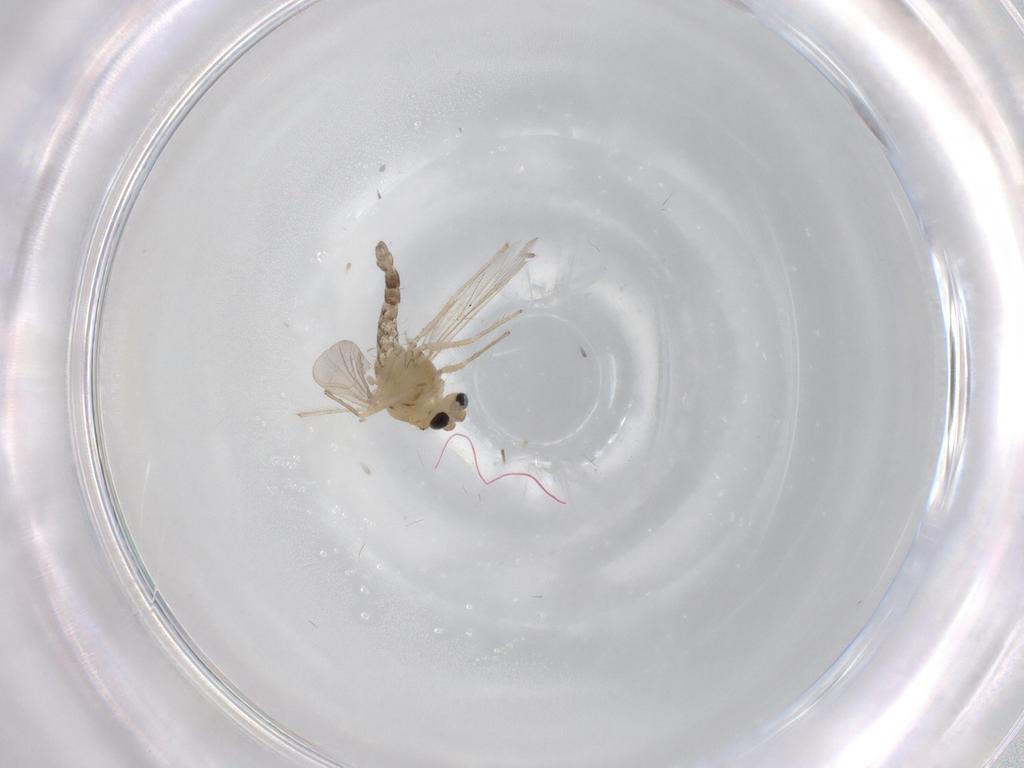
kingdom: Animalia
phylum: Arthropoda
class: Insecta
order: Diptera
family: Chironomidae
